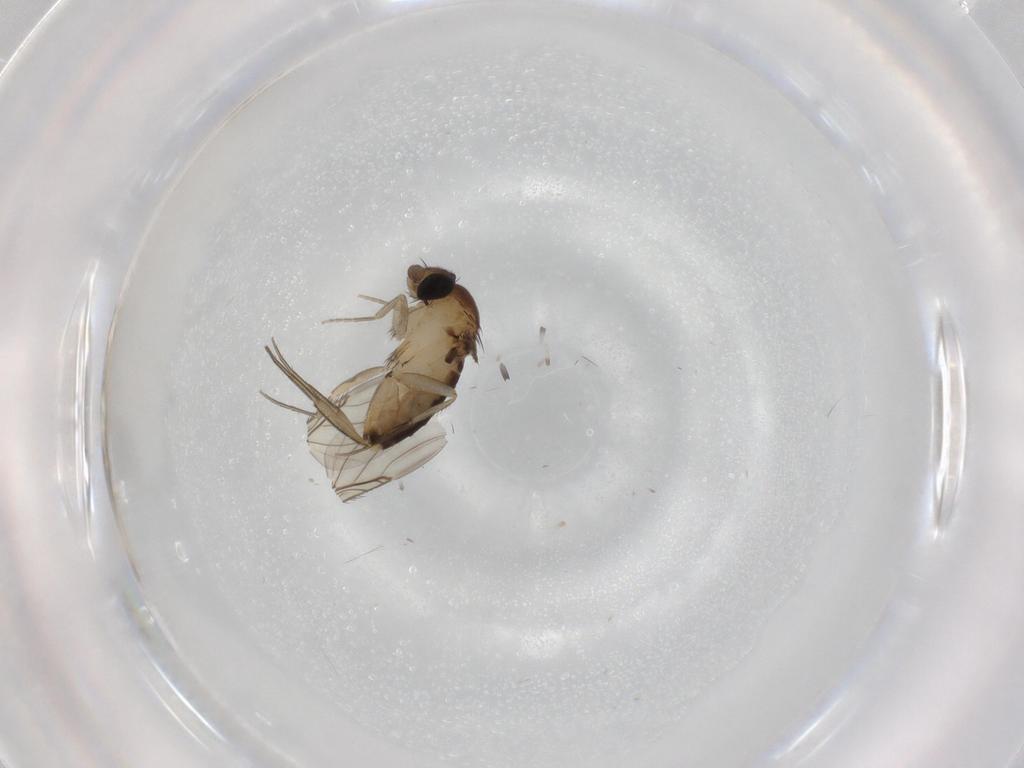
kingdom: Animalia
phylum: Arthropoda
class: Insecta
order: Diptera
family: Phoridae
